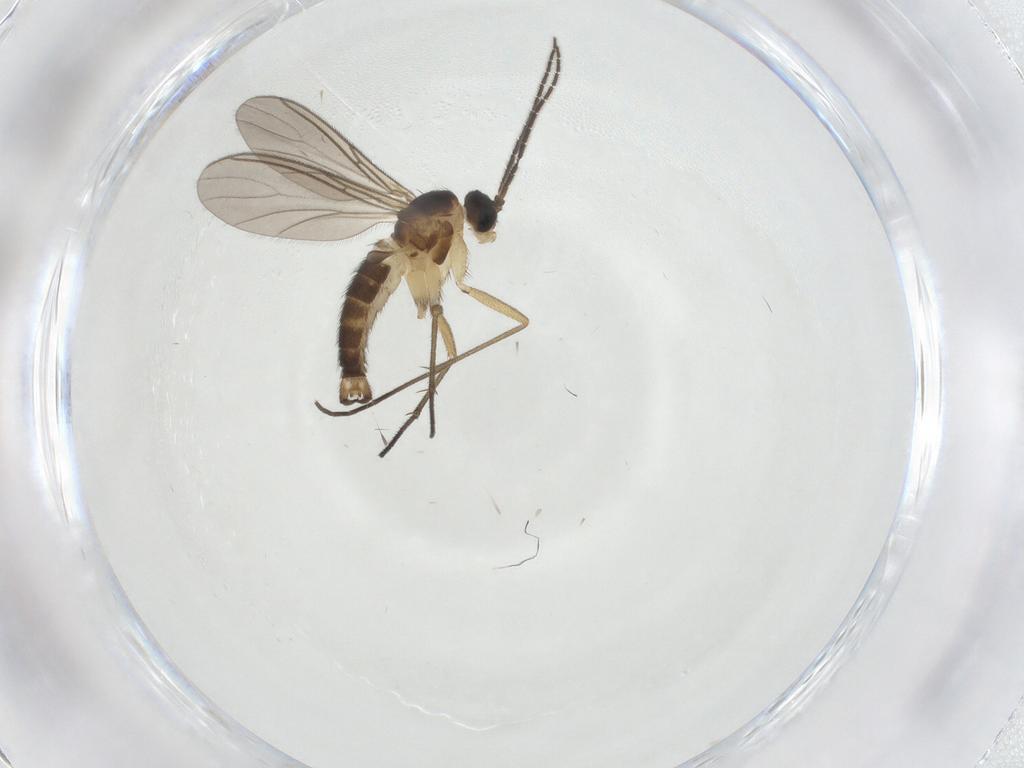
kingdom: Animalia
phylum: Arthropoda
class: Insecta
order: Diptera
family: Sciaridae
